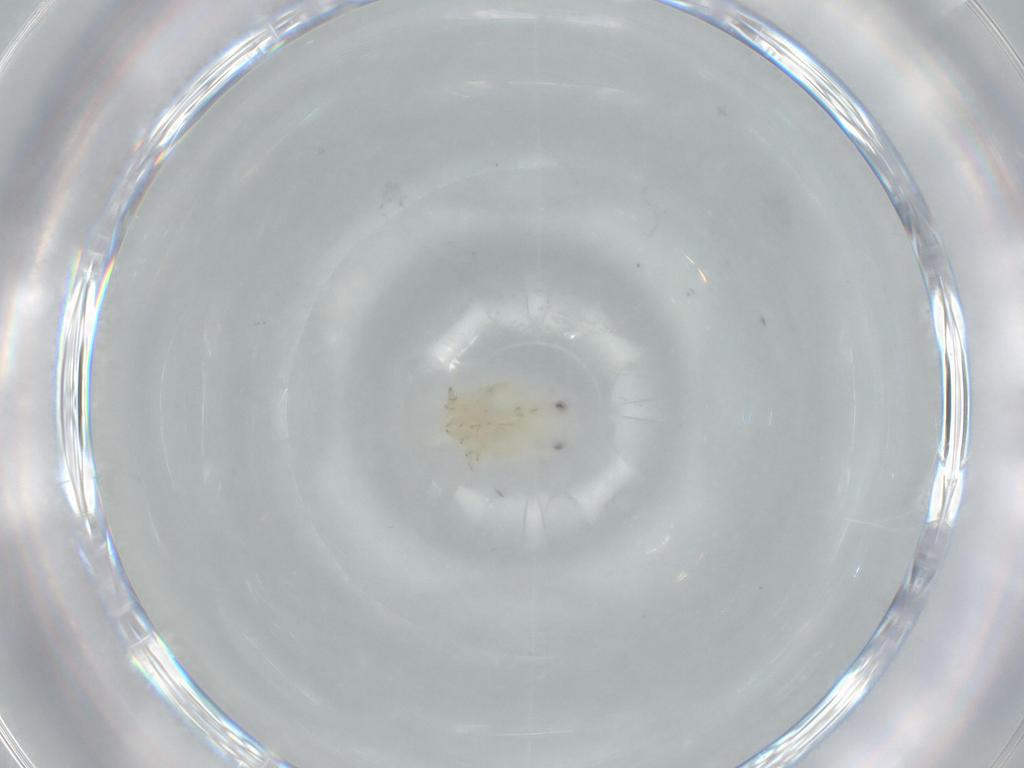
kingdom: Animalia
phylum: Arthropoda
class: Insecta
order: Hemiptera
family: Flatidae
